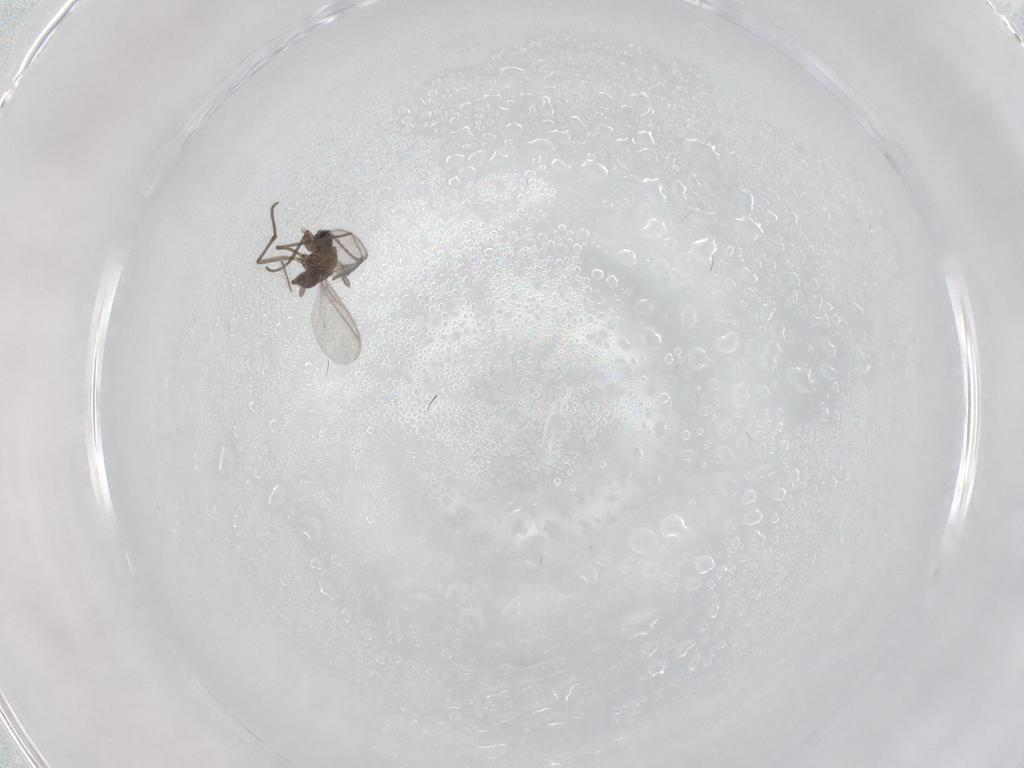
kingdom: Animalia
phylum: Arthropoda
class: Insecta
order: Diptera
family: Sciaridae
